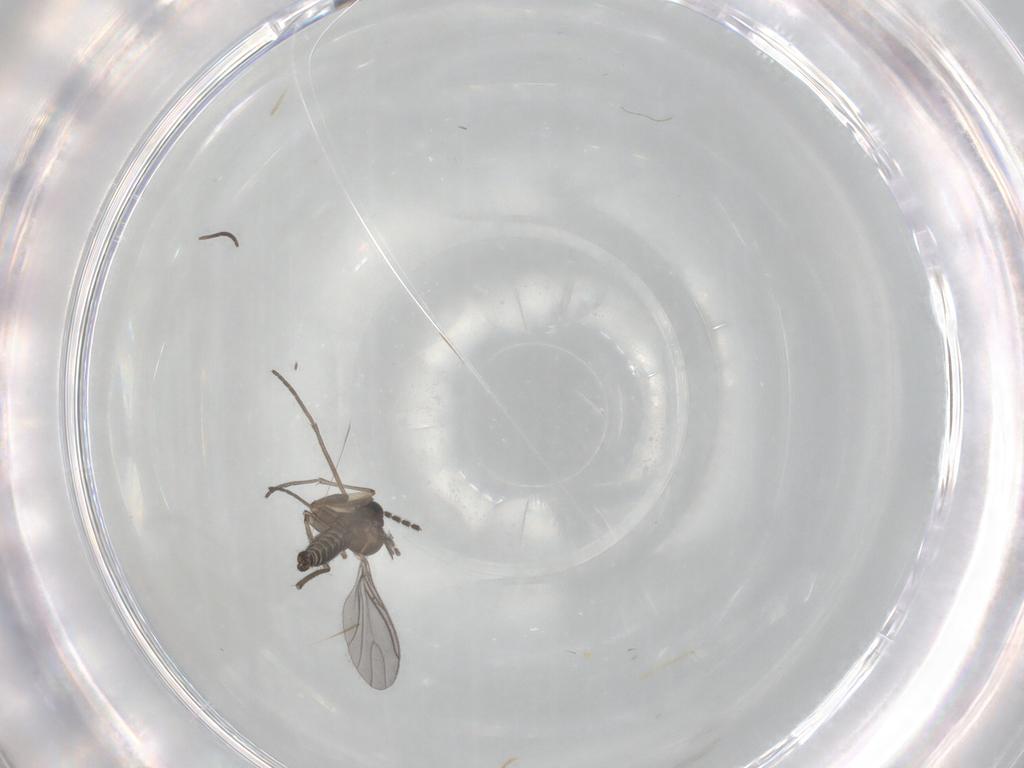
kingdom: Animalia
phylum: Arthropoda
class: Insecta
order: Diptera
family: Sciaridae
